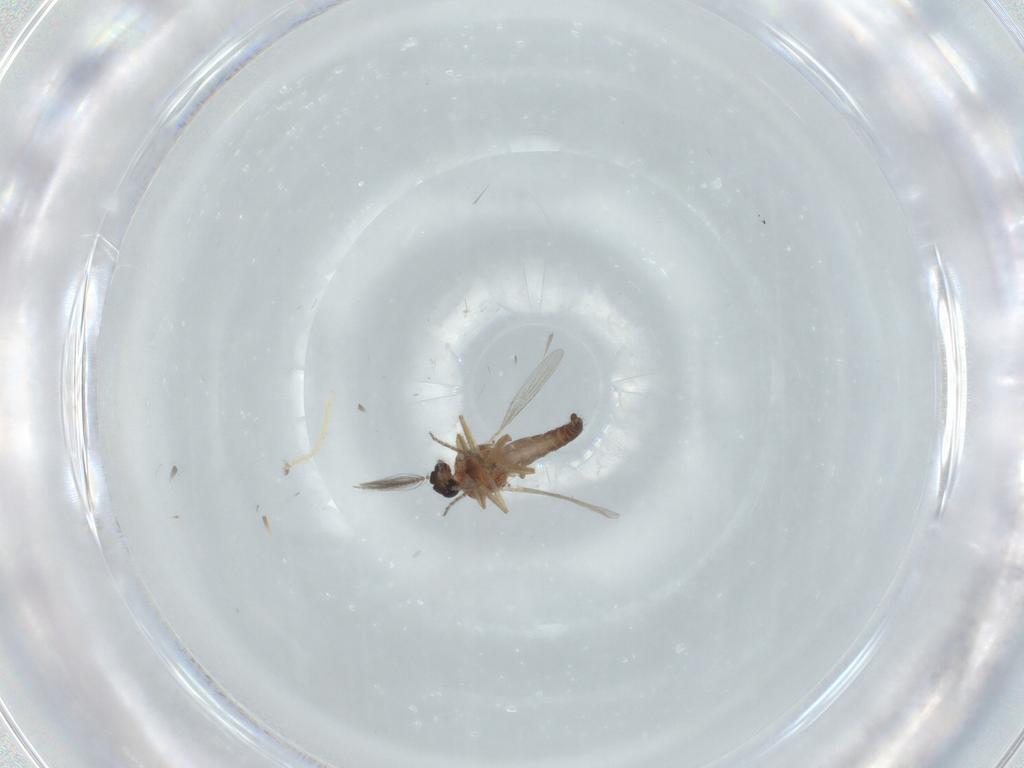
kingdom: Animalia
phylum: Arthropoda
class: Insecta
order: Diptera
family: Ceratopogonidae
